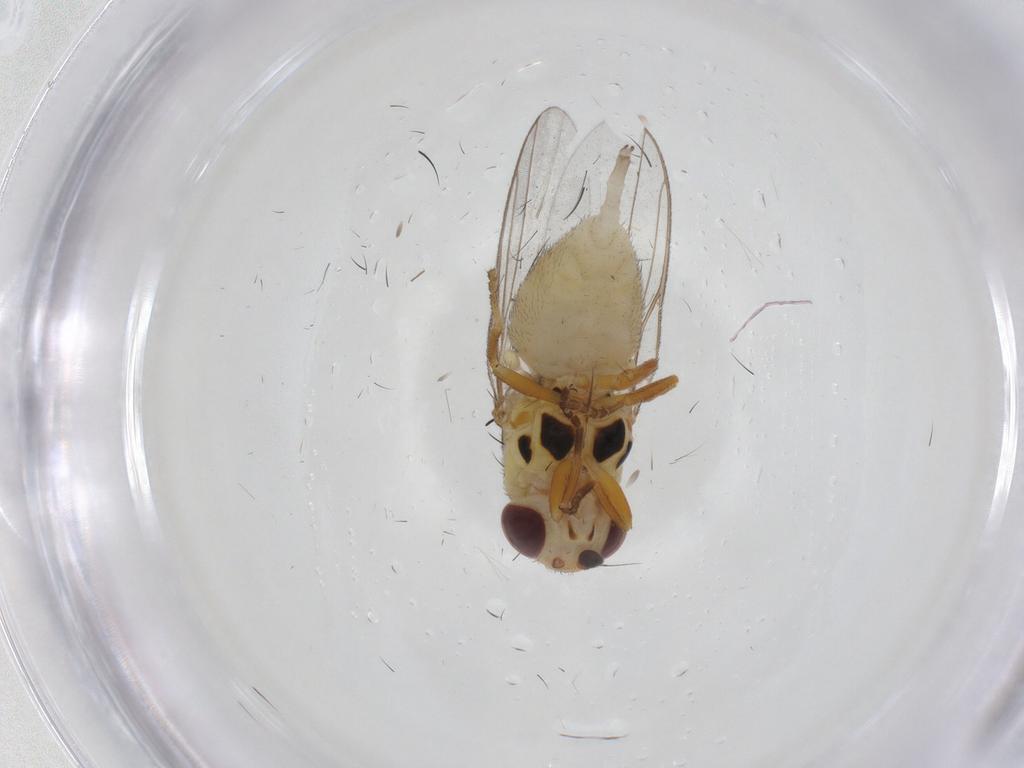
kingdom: Animalia
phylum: Arthropoda
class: Insecta
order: Diptera
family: Chloropidae
